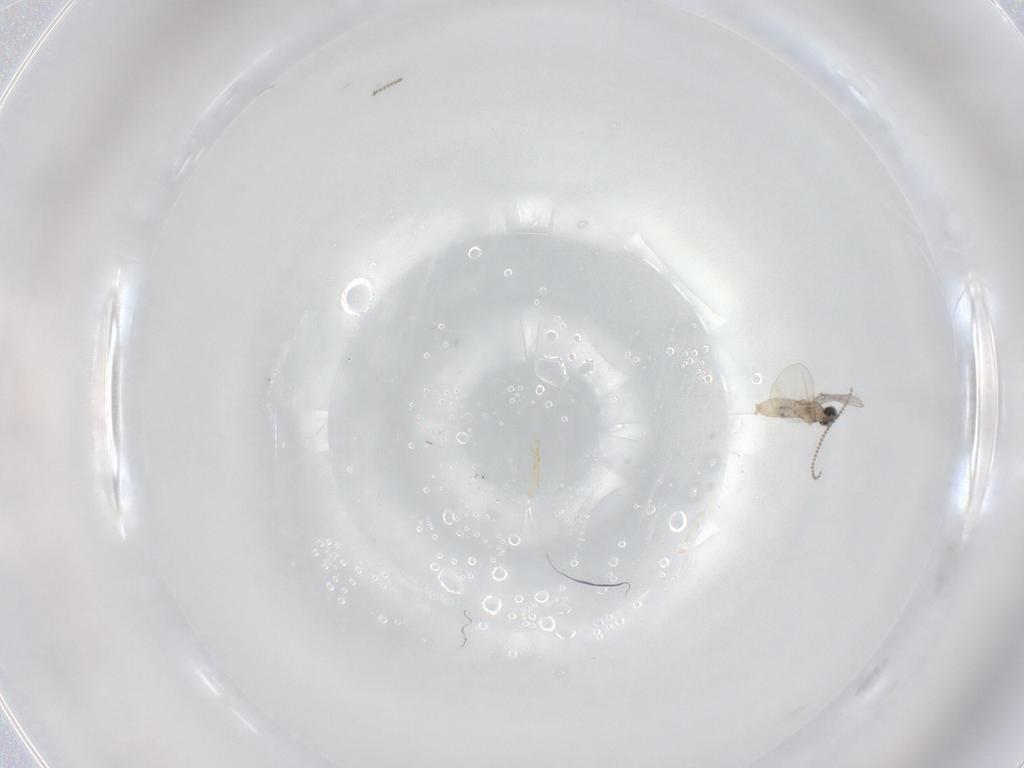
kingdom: Animalia
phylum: Arthropoda
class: Insecta
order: Diptera
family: Cecidomyiidae
